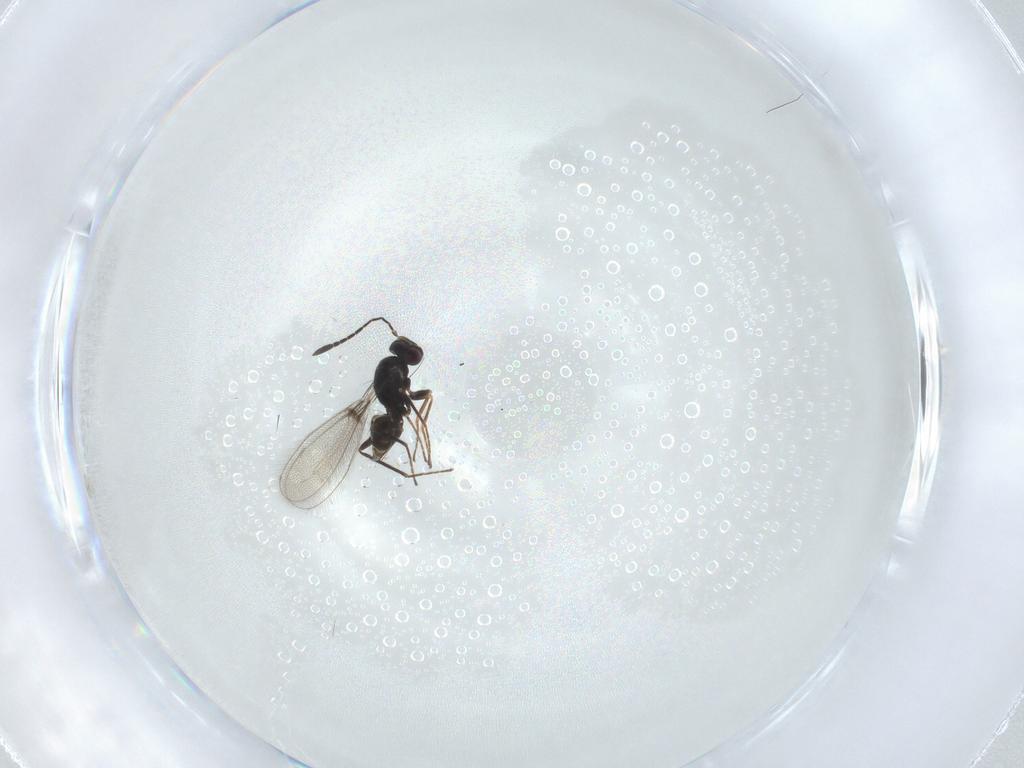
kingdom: Animalia
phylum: Arthropoda
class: Insecta
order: Hymenoptera
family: Mymaridae
